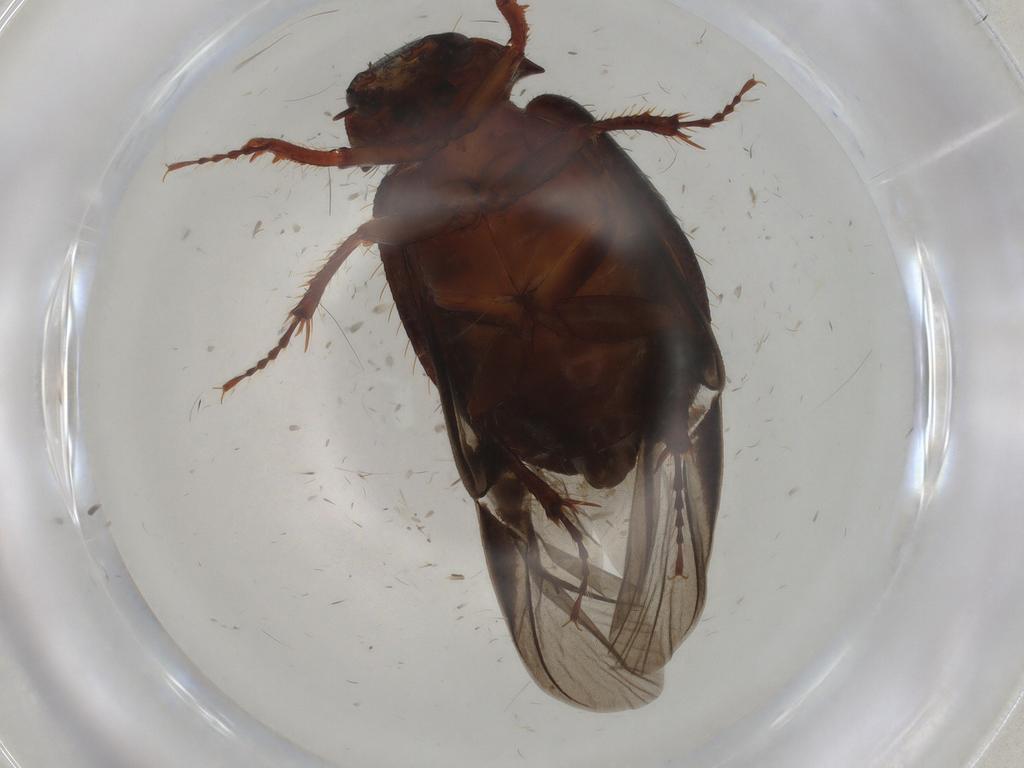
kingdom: Animalia
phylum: Arthropoda
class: Insecta
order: Coleoptera
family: Endomychidae
